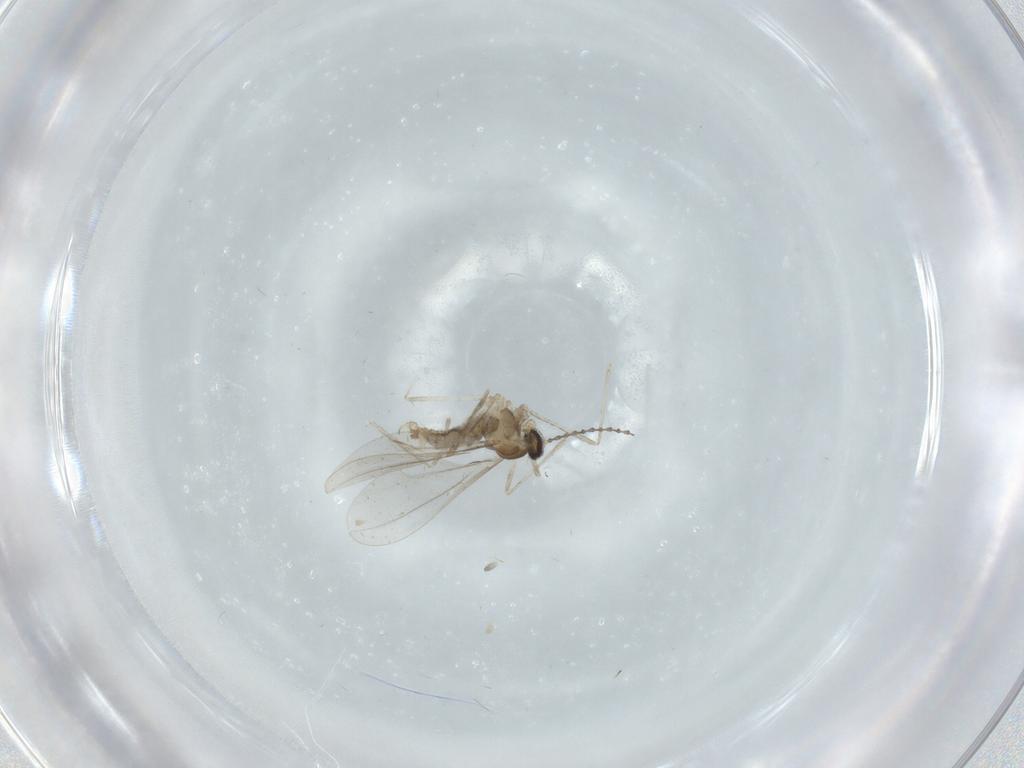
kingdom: Animalia
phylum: Arthropoda
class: Insecta
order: Diptera
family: Cecidomyiidae
